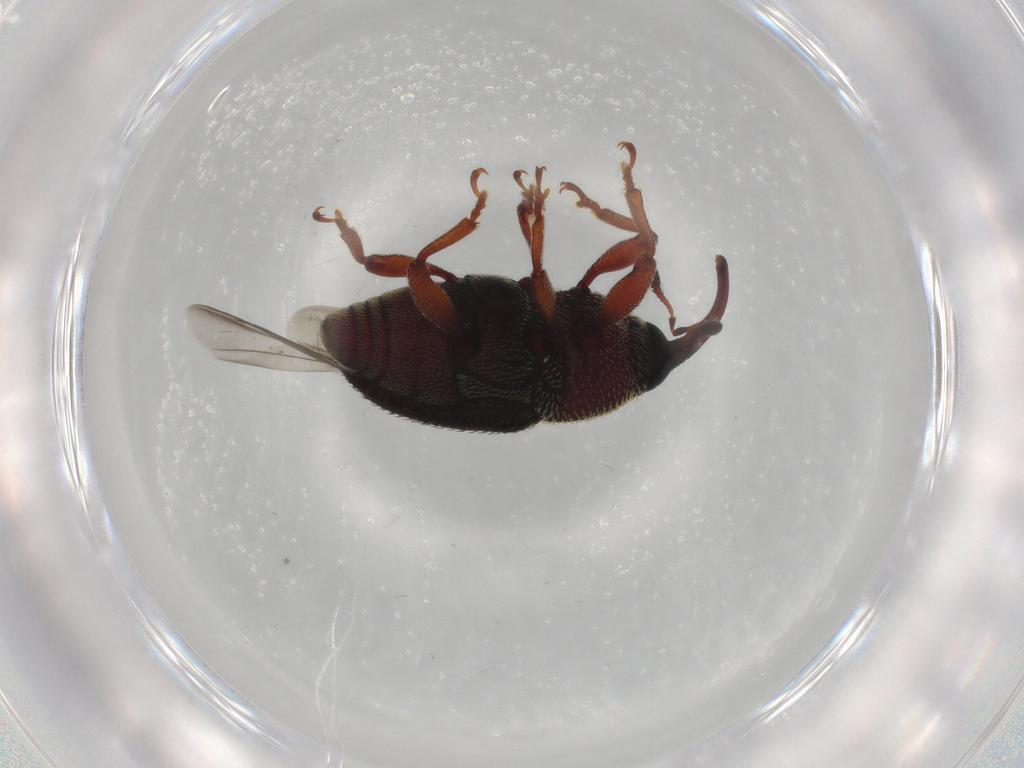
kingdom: Animalia
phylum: Arthropoda
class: Insecta
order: Coleoptera
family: Curculionidae
